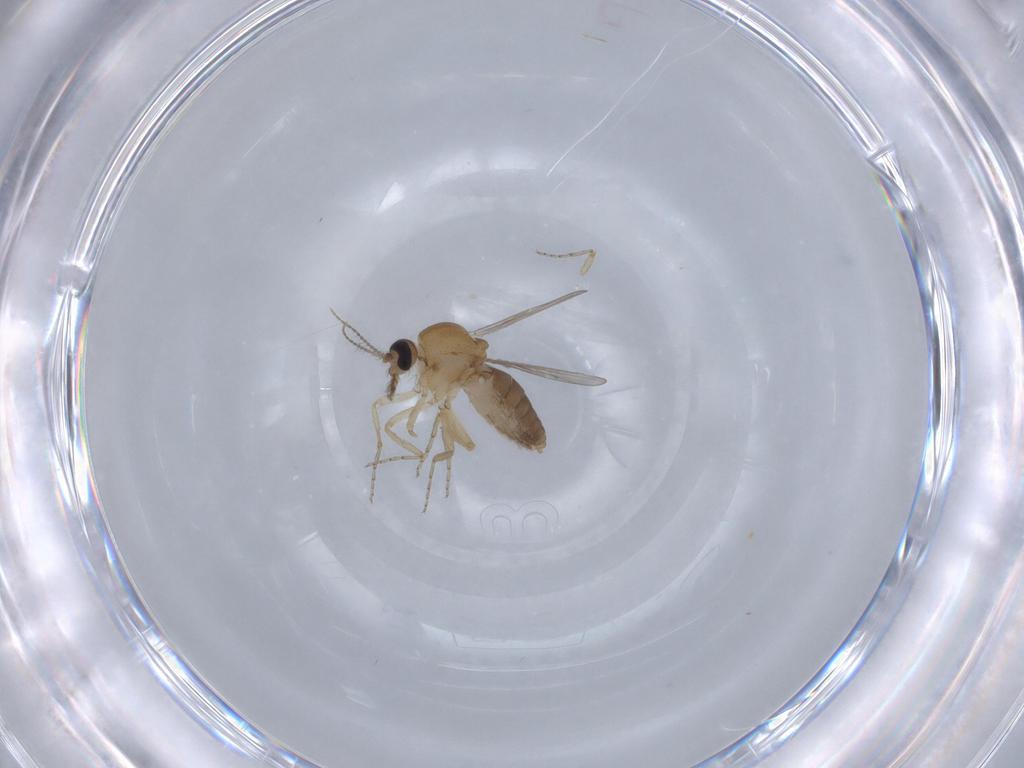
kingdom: Animalia
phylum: Arthropoda
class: Insecta
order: Diptera
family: Ceratopogonidae
